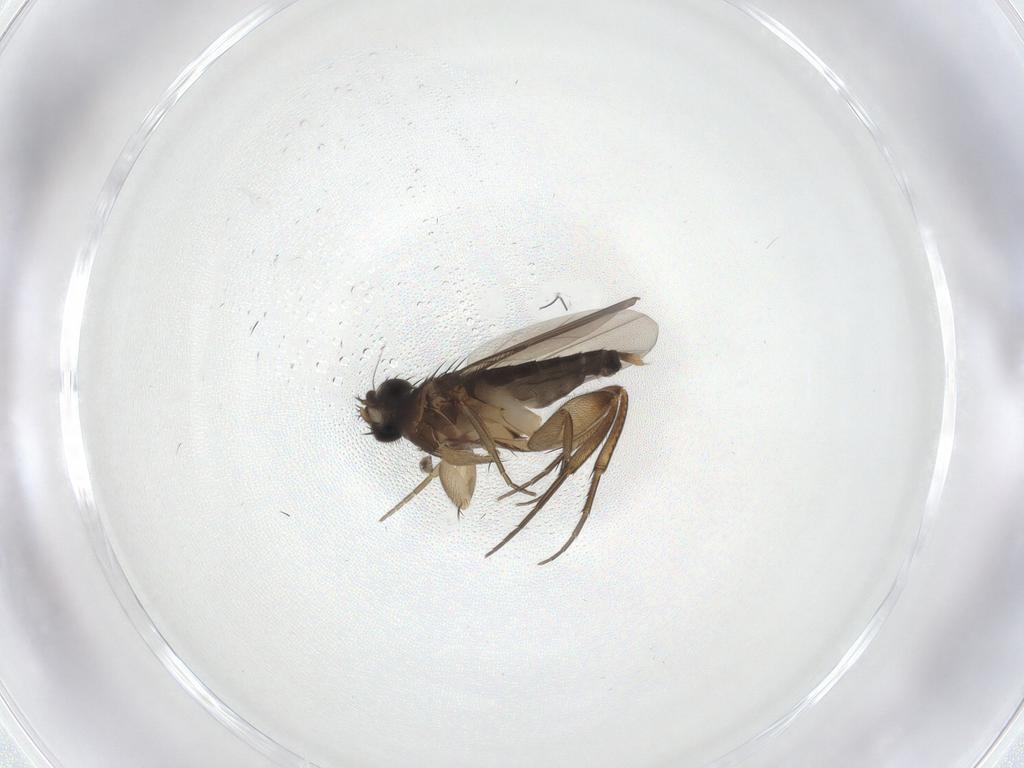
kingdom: Animalia
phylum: Arthropoda
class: Insecta
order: Diptera
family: Phoridae
